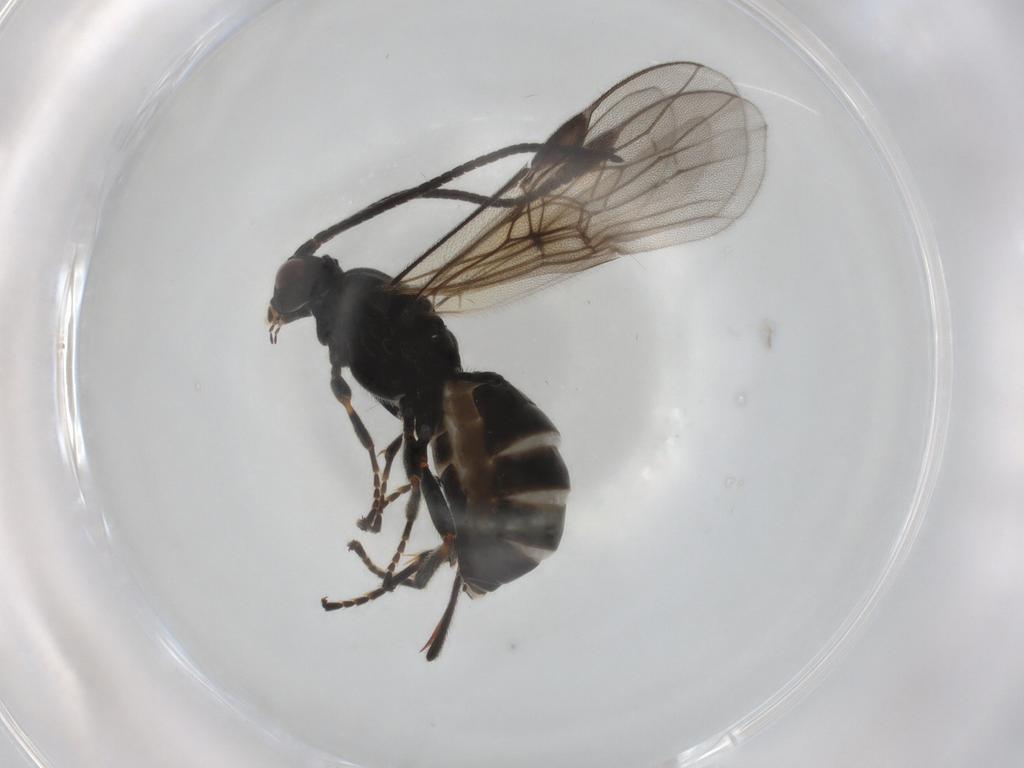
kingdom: Animalia
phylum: Arthropoda
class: Insecta
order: Hymenoptera
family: Braconidae
